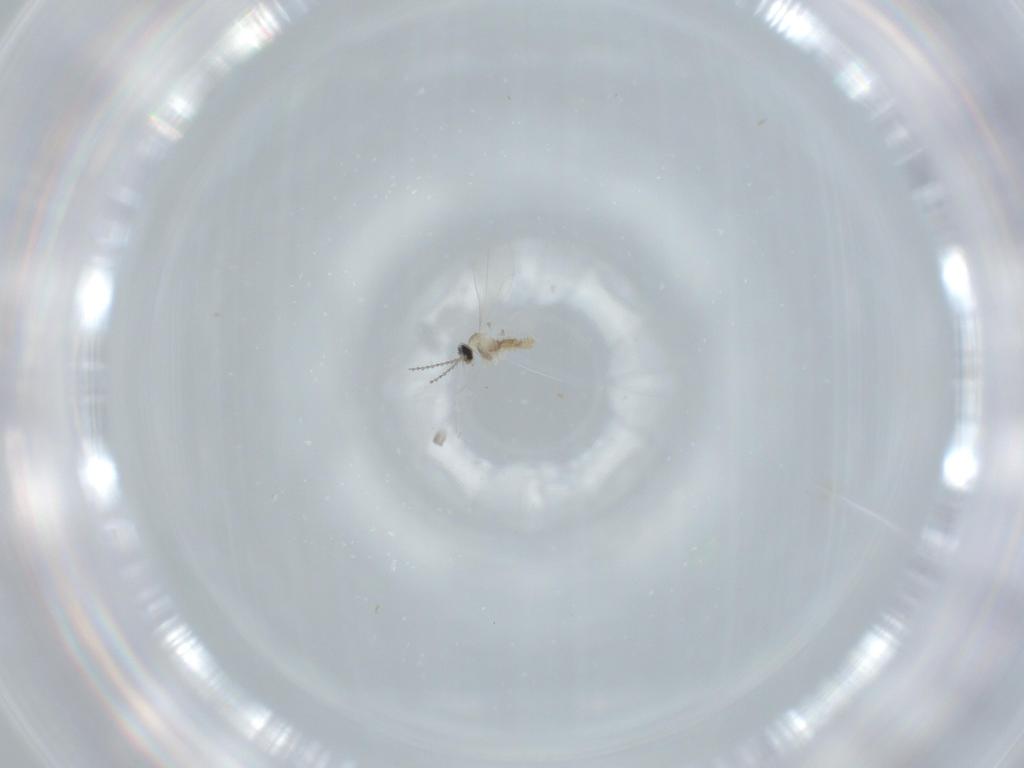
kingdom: Animalia
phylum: Arthropoda
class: Insecta
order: Diptera
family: Cecidomyiidae
